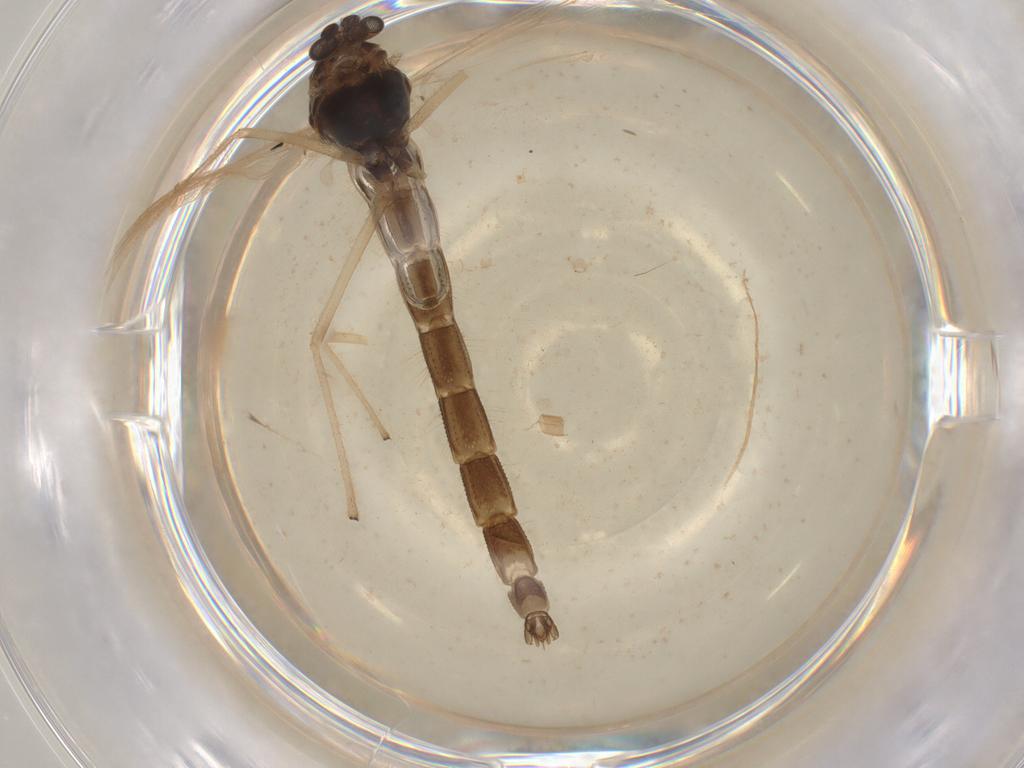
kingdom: Animalia
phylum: Arthropoda
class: Insecta
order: Diptera
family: Chironomidae
